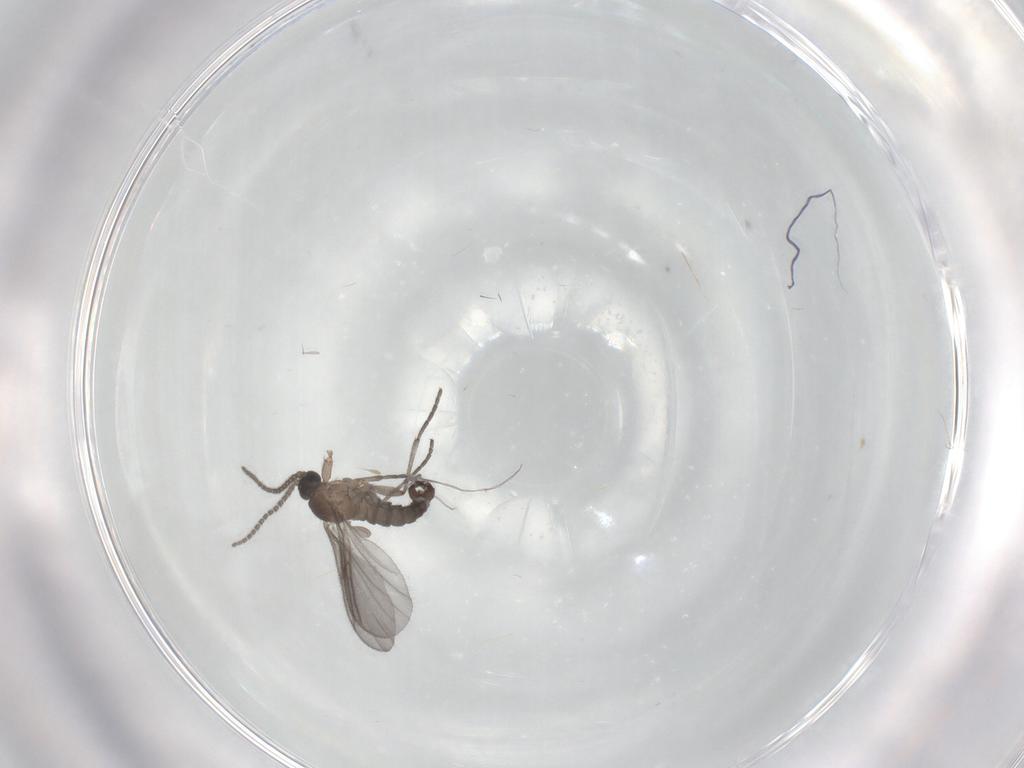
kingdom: Animalia
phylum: Arthropoda
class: Insecta
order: Diptera
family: Sciaridae
